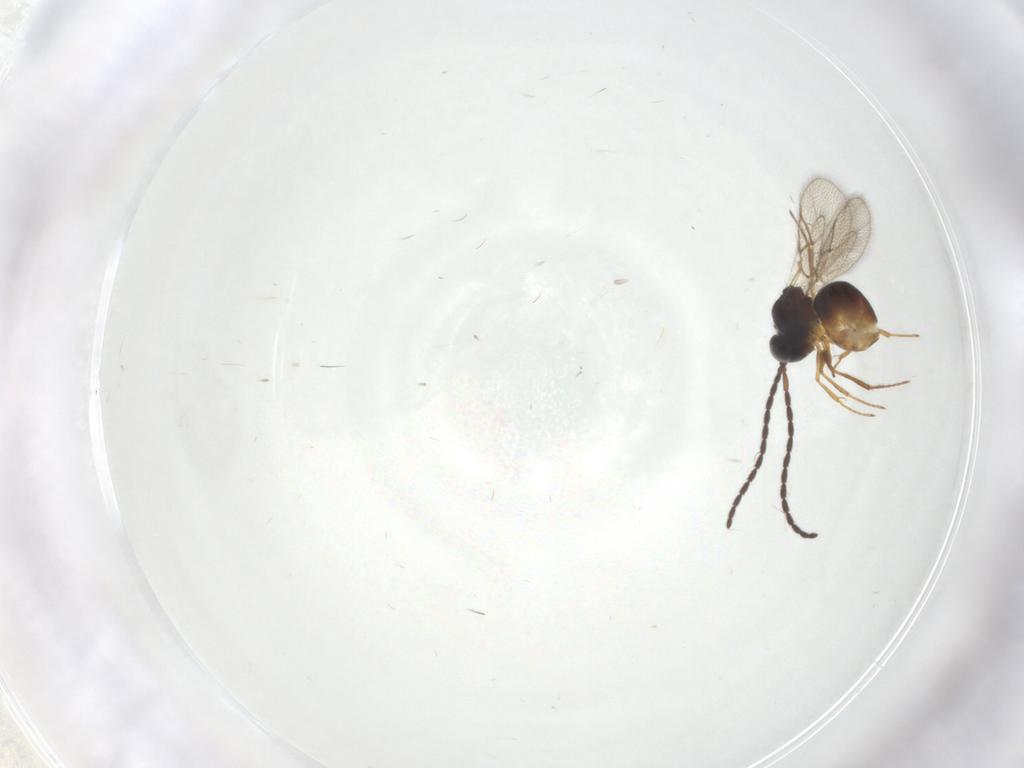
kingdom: Animalia
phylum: Arthropoda
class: Insecta
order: Hymenoptera
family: Figitidae
